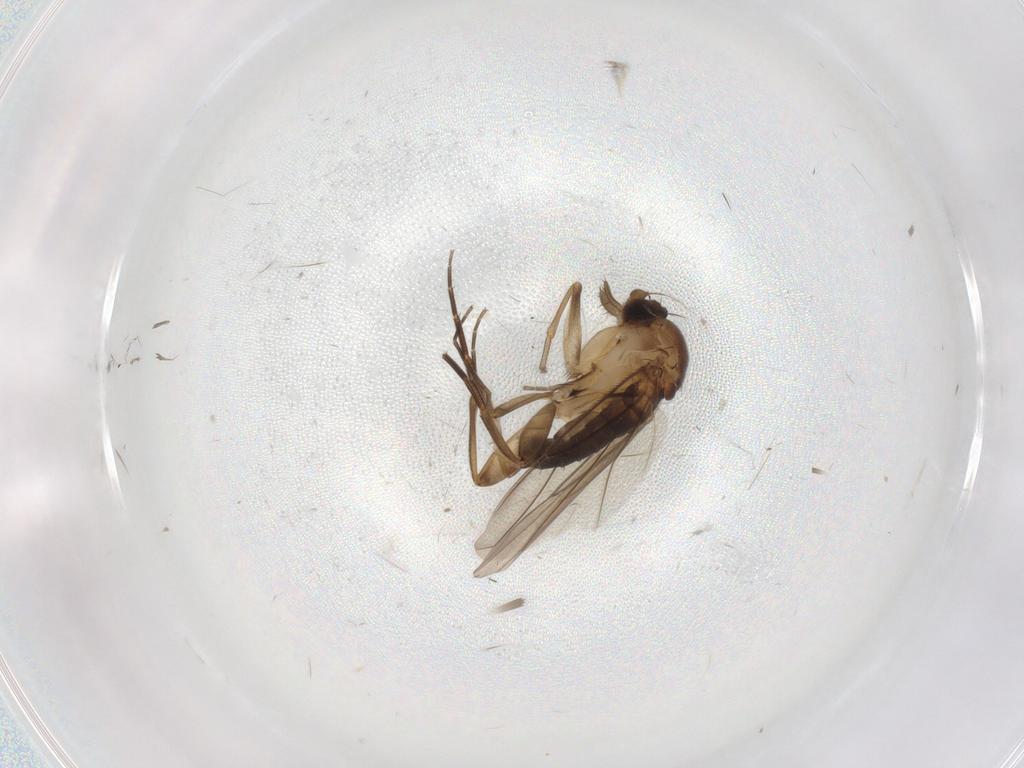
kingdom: Animalia
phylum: Arthropoda
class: Insecta
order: Diptera
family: Phoridae
